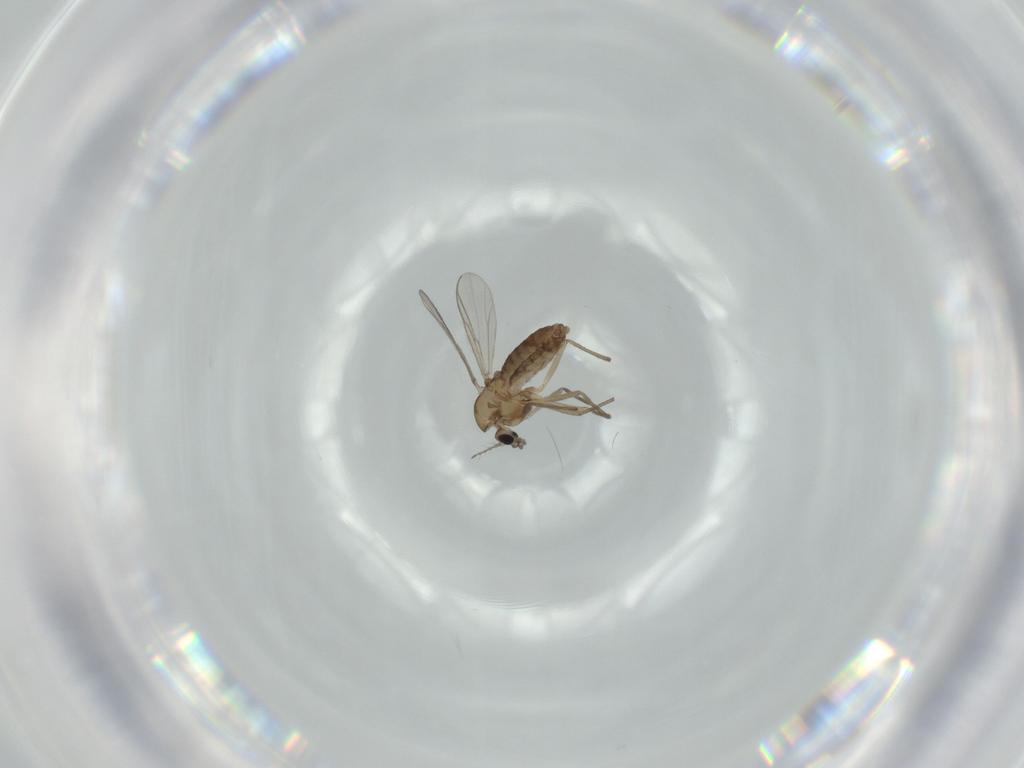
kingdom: Animalia
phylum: Arthropoda
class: Insecta
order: Diptera
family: Chironomidae
